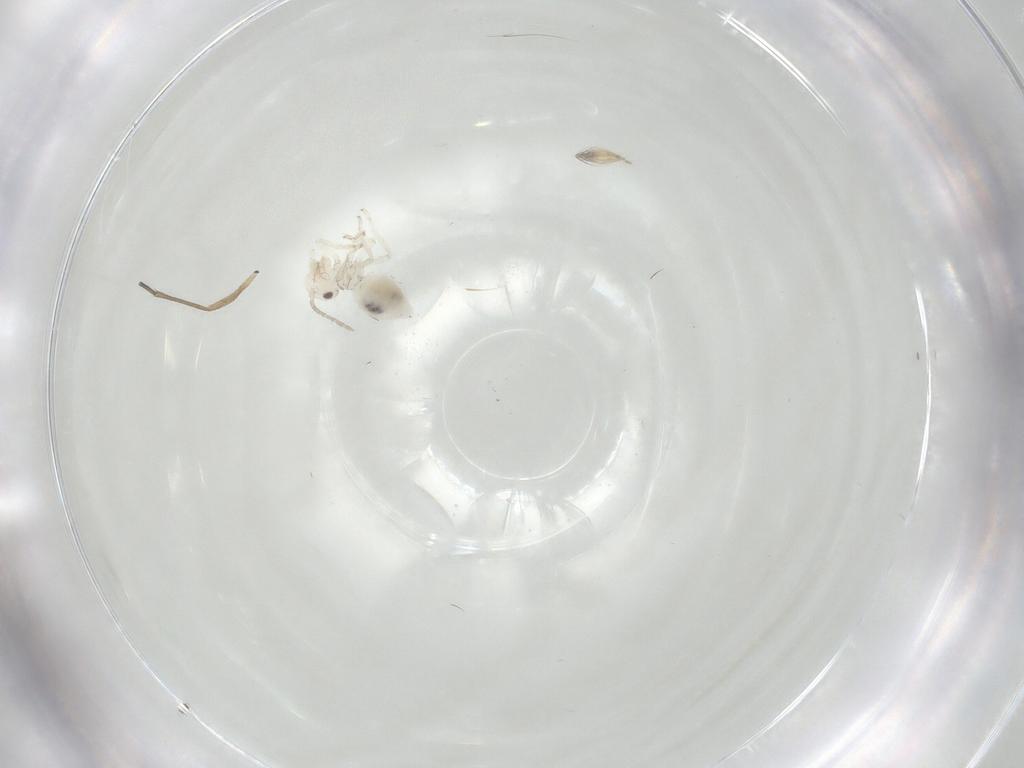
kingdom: Animalia
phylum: Arthropoda
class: Insecta
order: Psocodea
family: Amphipsocidae
